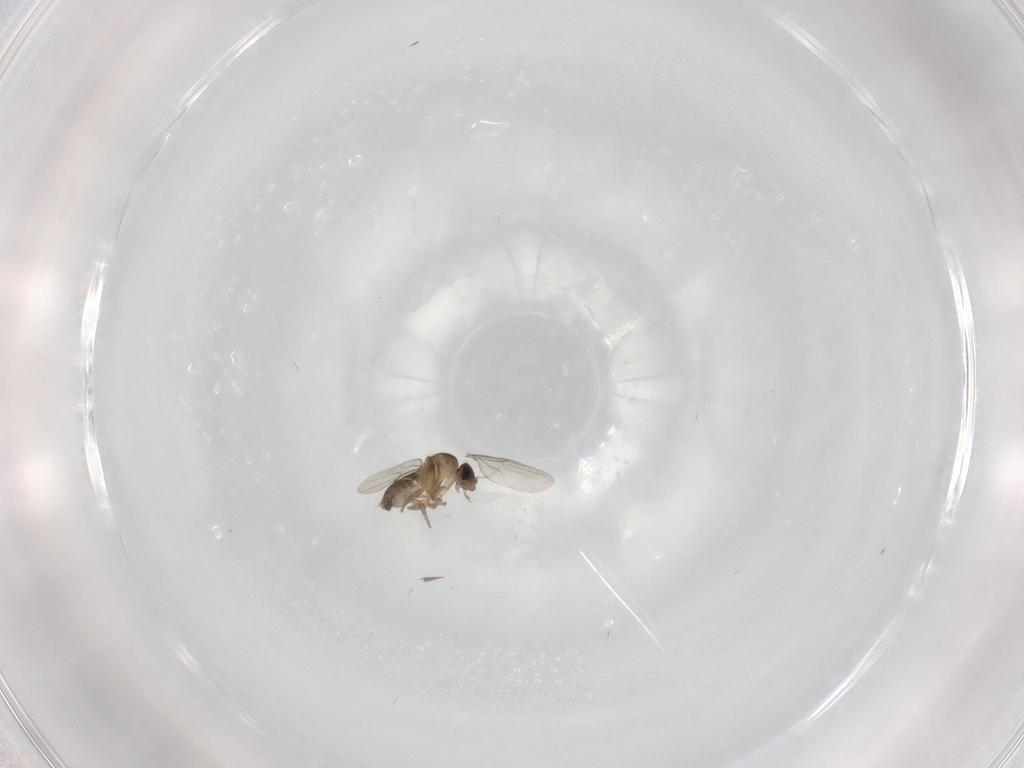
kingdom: Animalia
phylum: Arthropoda
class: Insecta
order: Diptera
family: Phoridae
